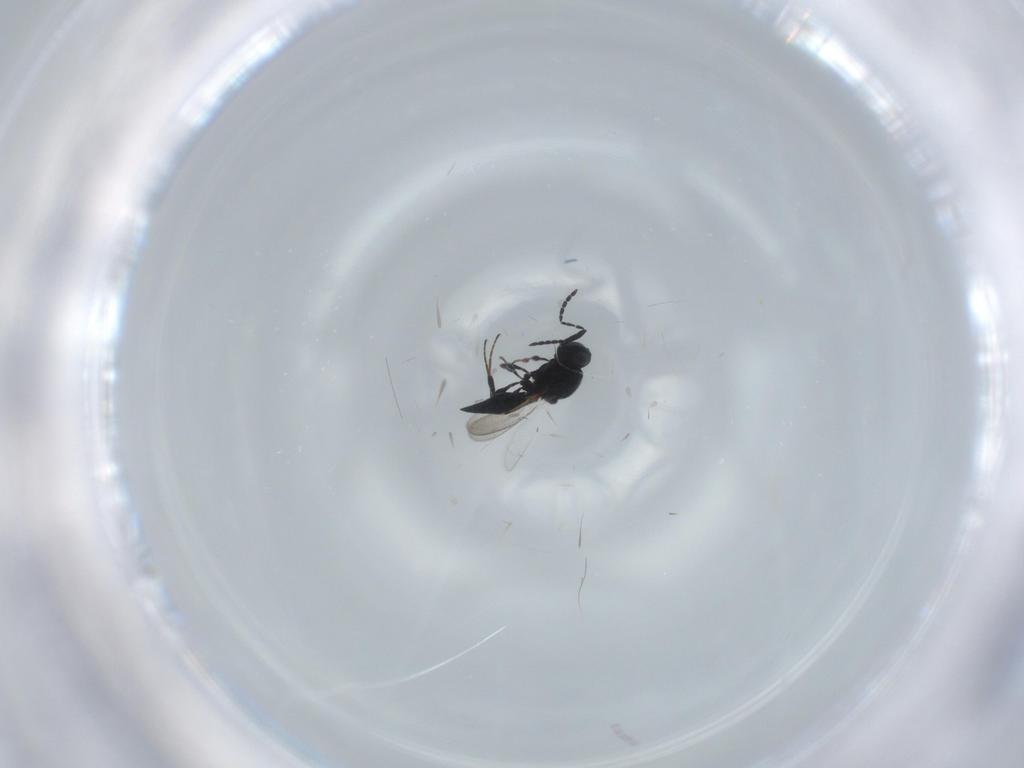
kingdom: Animalia
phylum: Arthropoda
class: Insecta
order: Diptera
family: Mythicomyiidae
